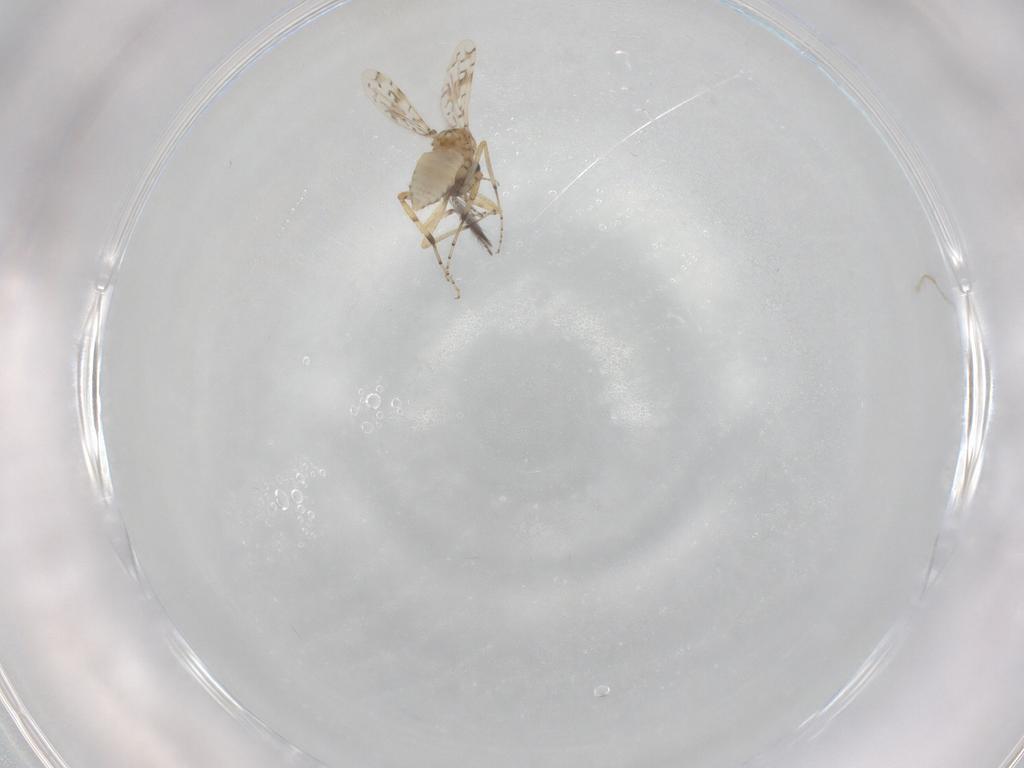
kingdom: Animalia
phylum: Arthropoda
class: Insecta
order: Diptera
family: Ceratopogonidae
